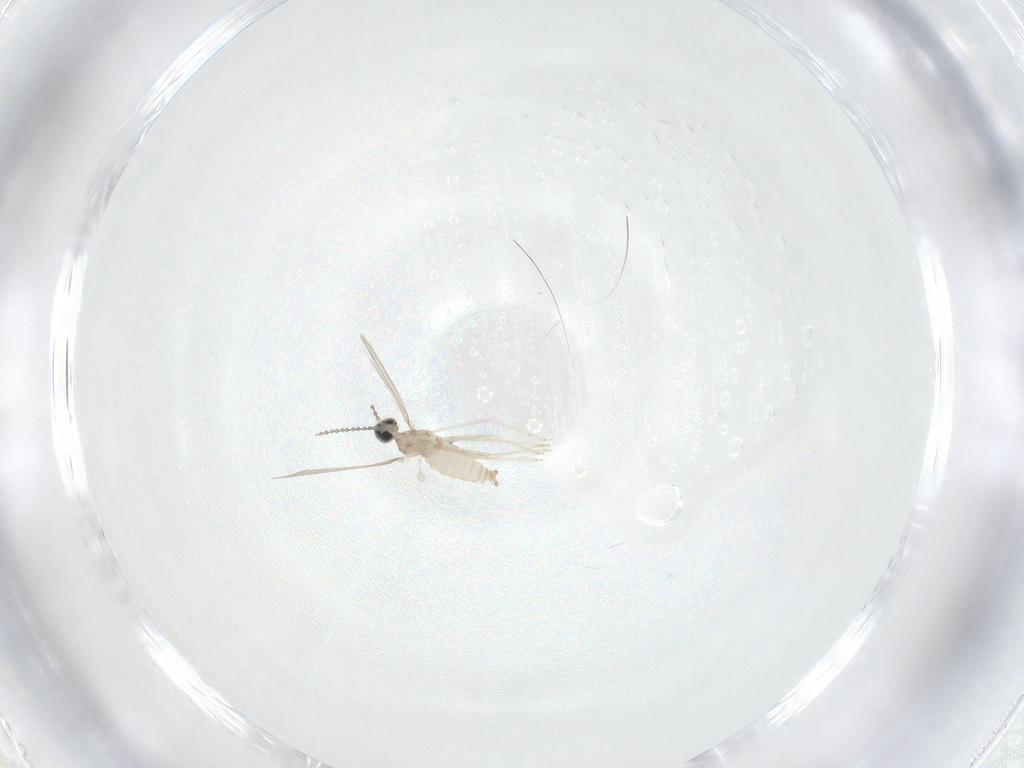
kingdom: Animalia
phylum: Arthropoda
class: Insecta
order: Diptera
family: Cecidomyiidae
